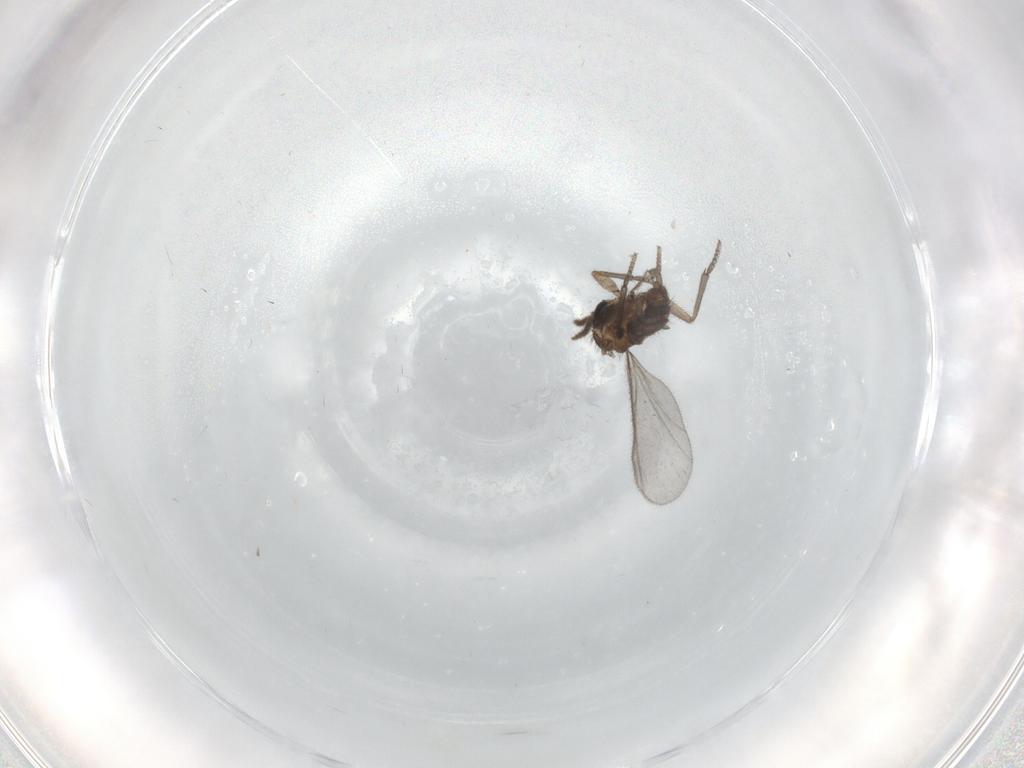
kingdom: Animalia
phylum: Arthropoda
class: Insecta
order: Diptera
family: Sciaridae
